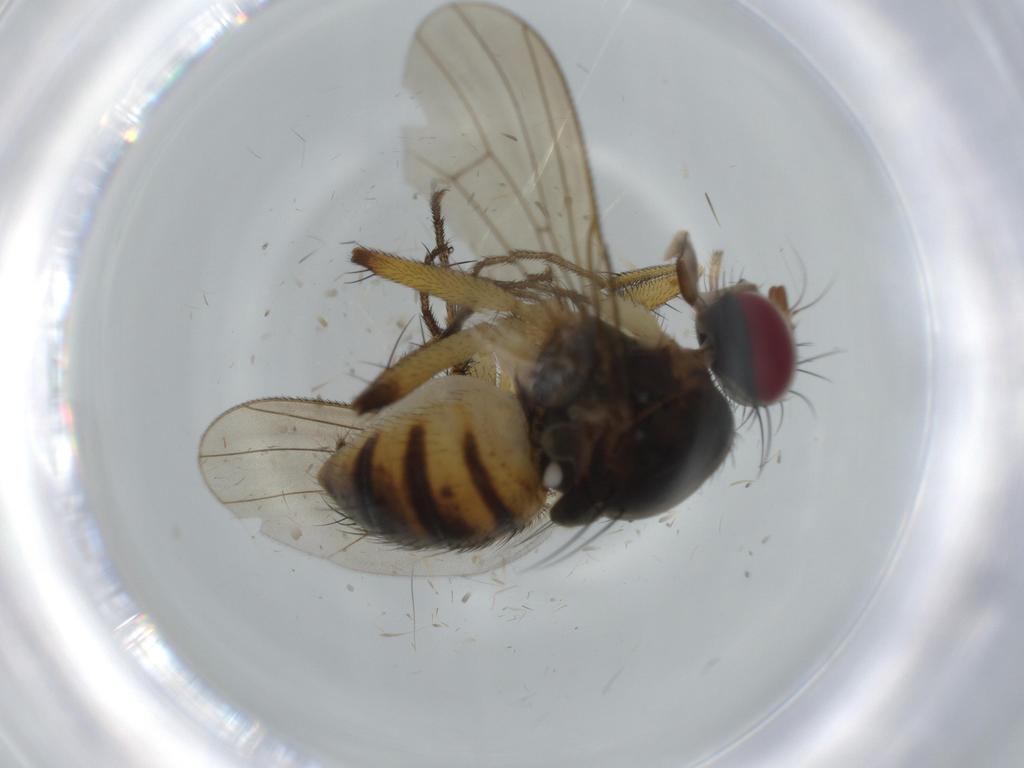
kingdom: Animalia
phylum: Arthropoda
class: Insecta
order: Diptera
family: Muscidae
